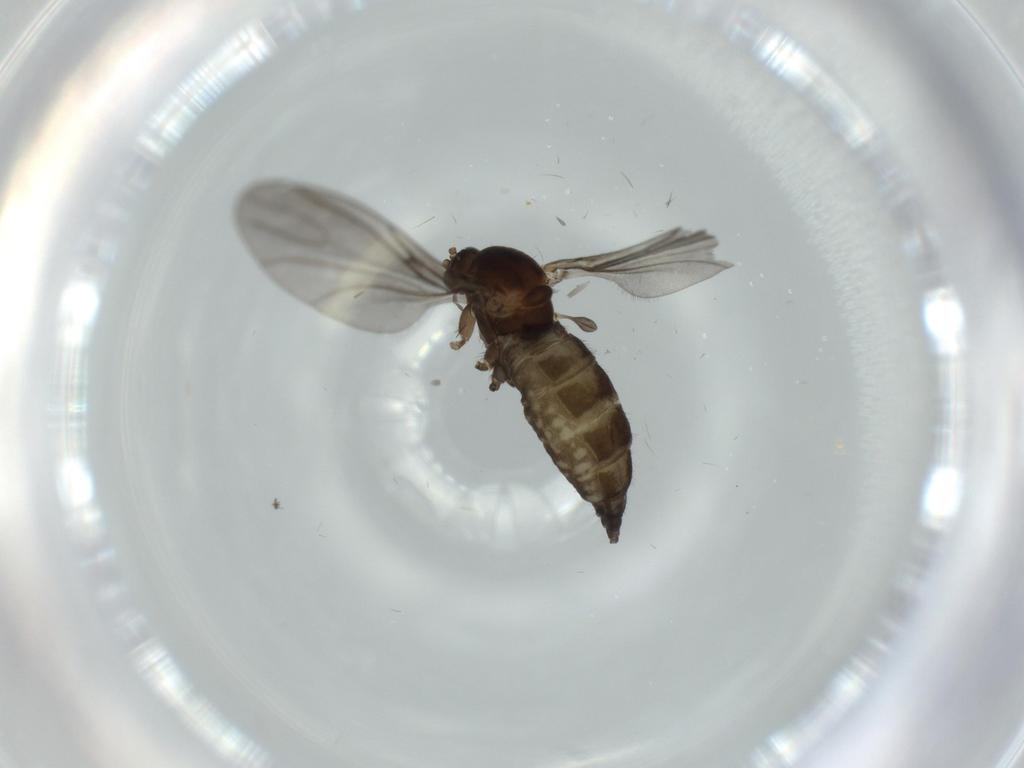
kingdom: Animalia
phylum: Arthropoda
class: Insecta
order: Diptera
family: Sciaridae
